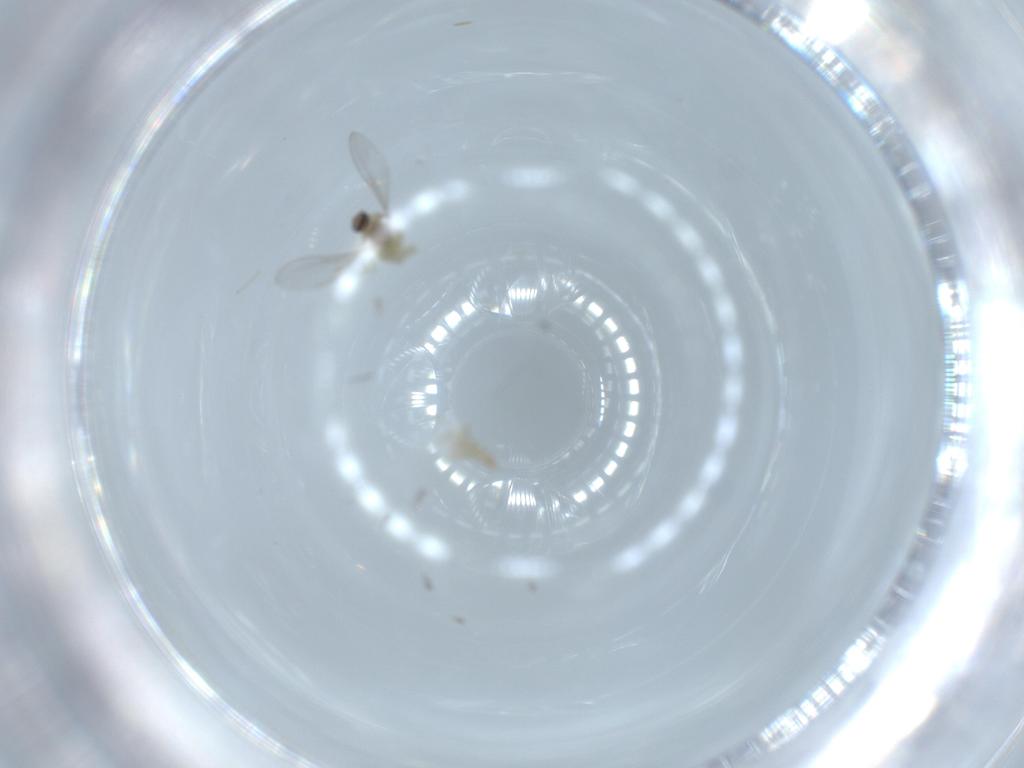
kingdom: Animalia
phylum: Arthropoda
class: Insecta
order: Diptera
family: Cecidomyiidae
